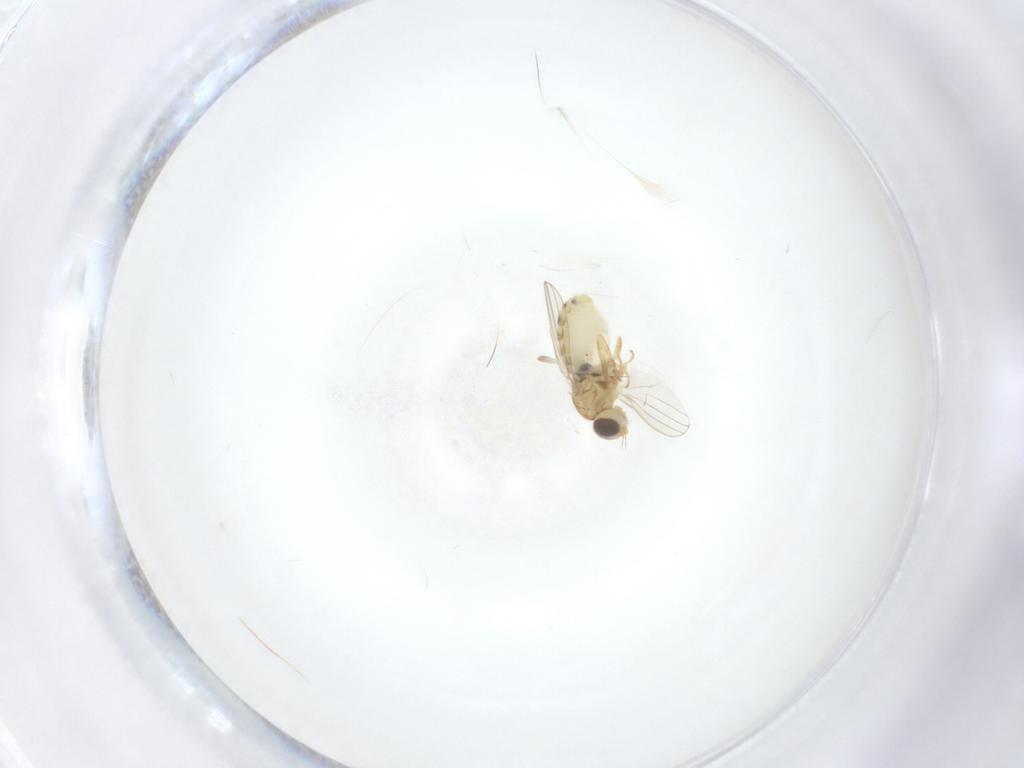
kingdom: Animalia
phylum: Arthropoda
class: Insecta
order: Diptera
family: Chyromyidae
